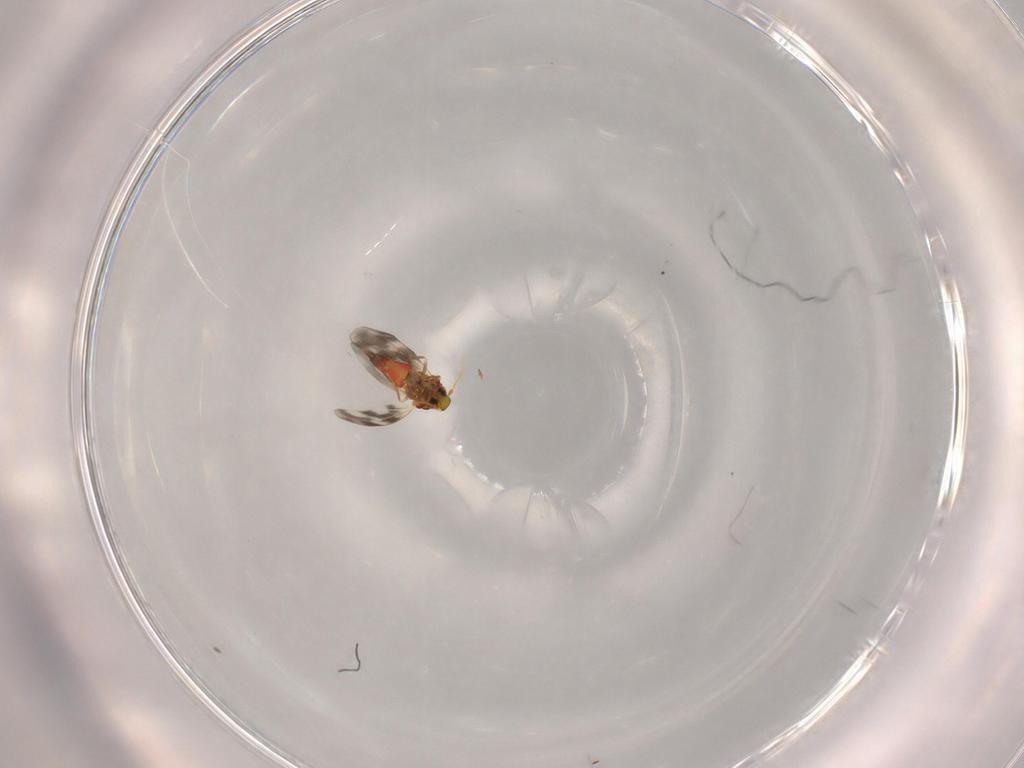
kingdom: Animalia
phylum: Arthropoda
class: Insecta
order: Hemiptera
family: Aleyrodidae
